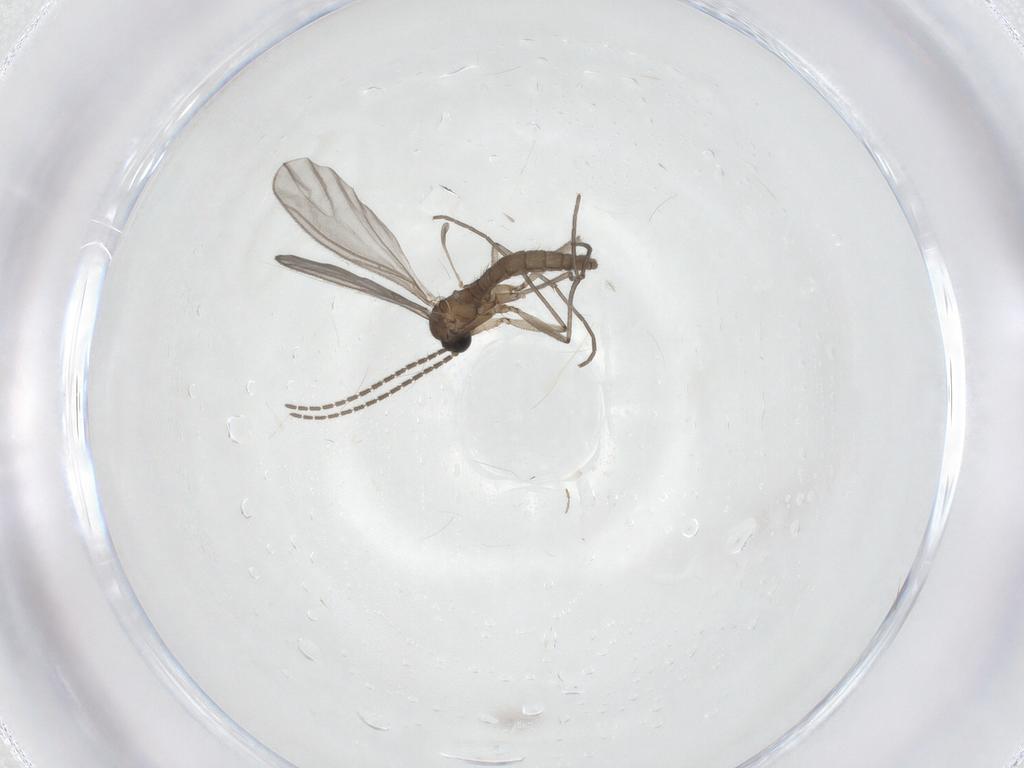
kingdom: Animalia
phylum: Arthropoda
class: Insecta
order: Diptera
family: Sciaridae
